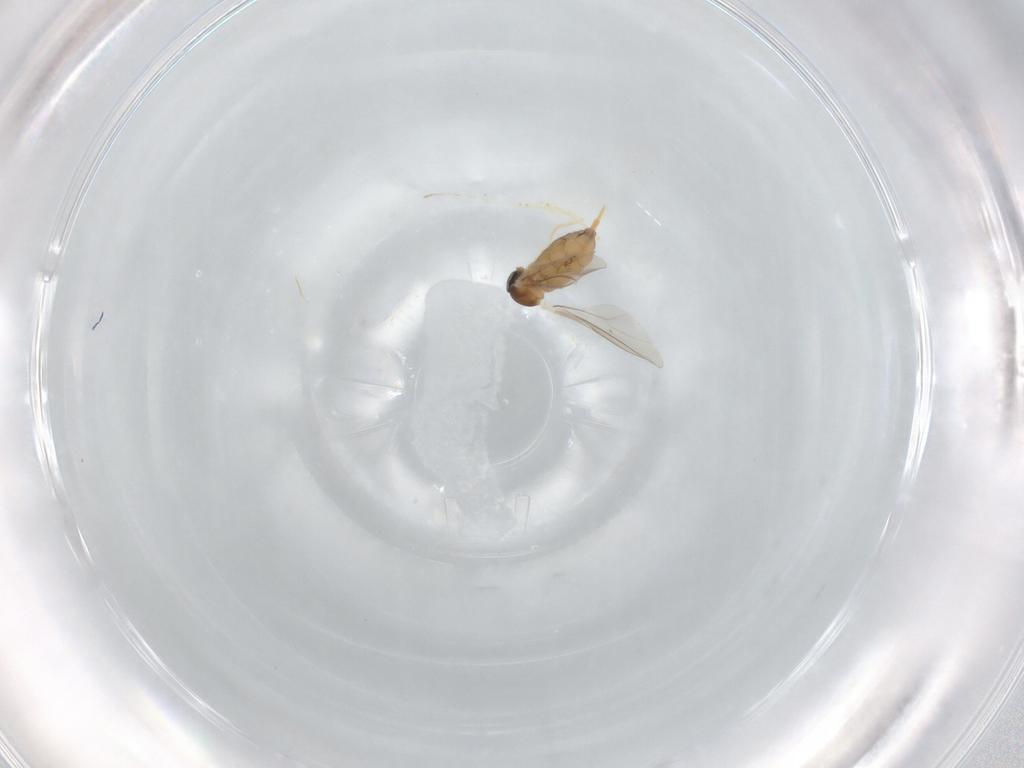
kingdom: Animalia
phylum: Arthropoda
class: Insecta
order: Diptera
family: Cecidomyiidae
